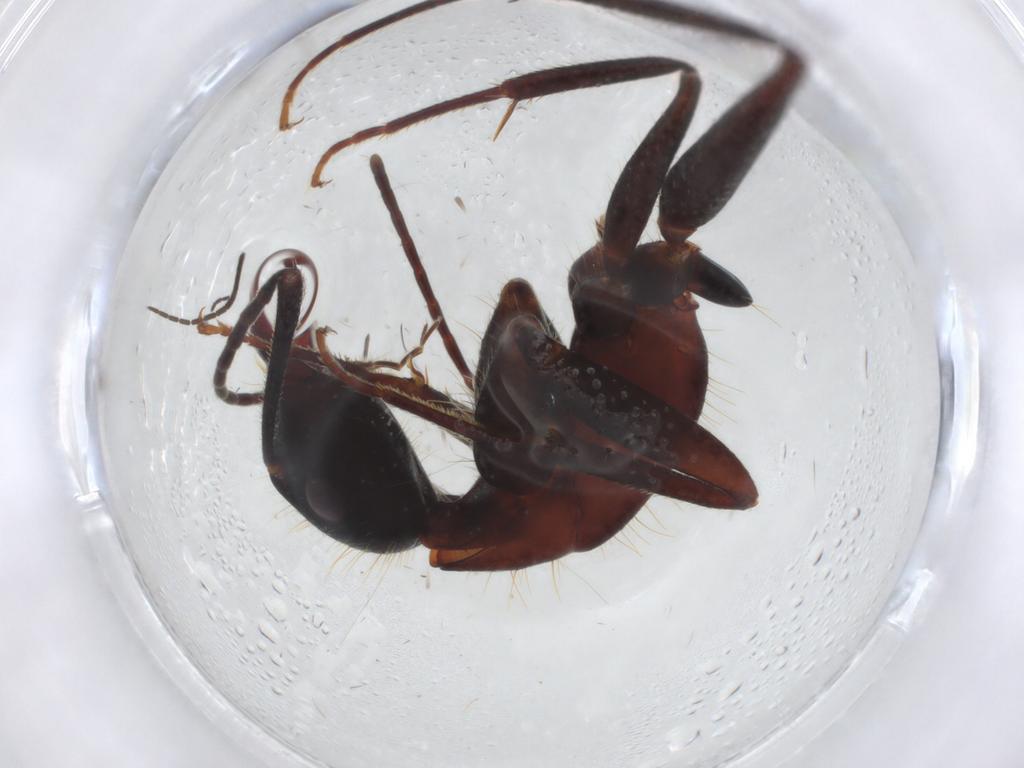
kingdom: Animalia
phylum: Arthropoda
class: Insecta
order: Hymenoptera
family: Formicidae
